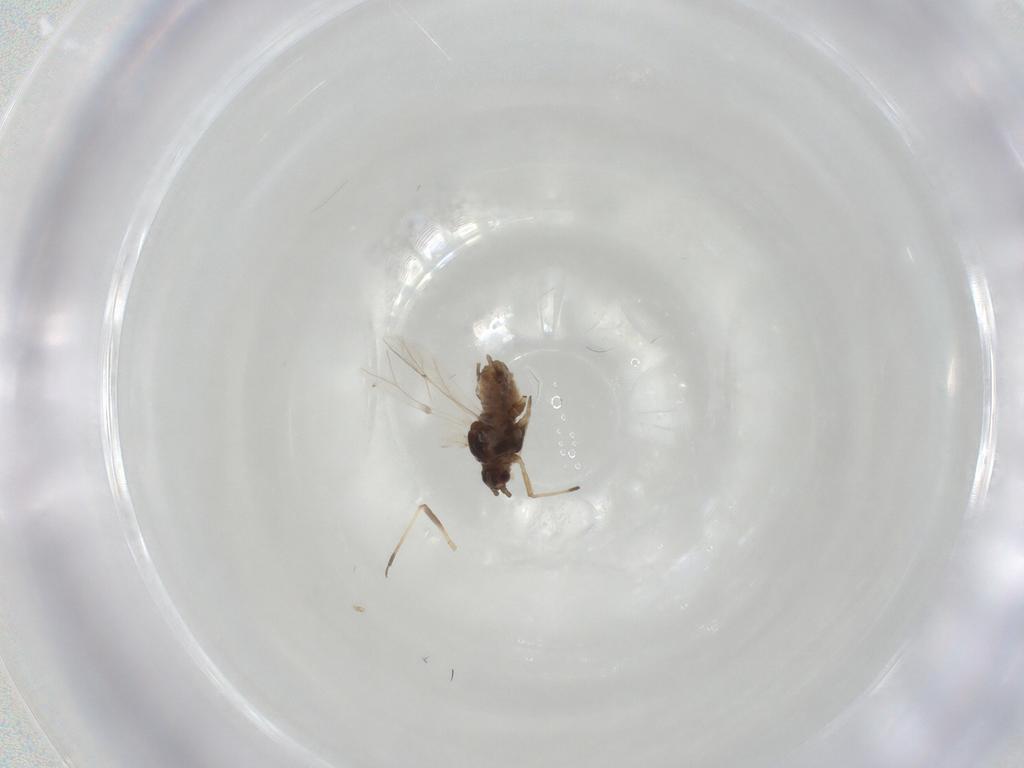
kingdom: Animalia
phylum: Arthropoda
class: Insecta
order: Hemiptera
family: Aphididae
